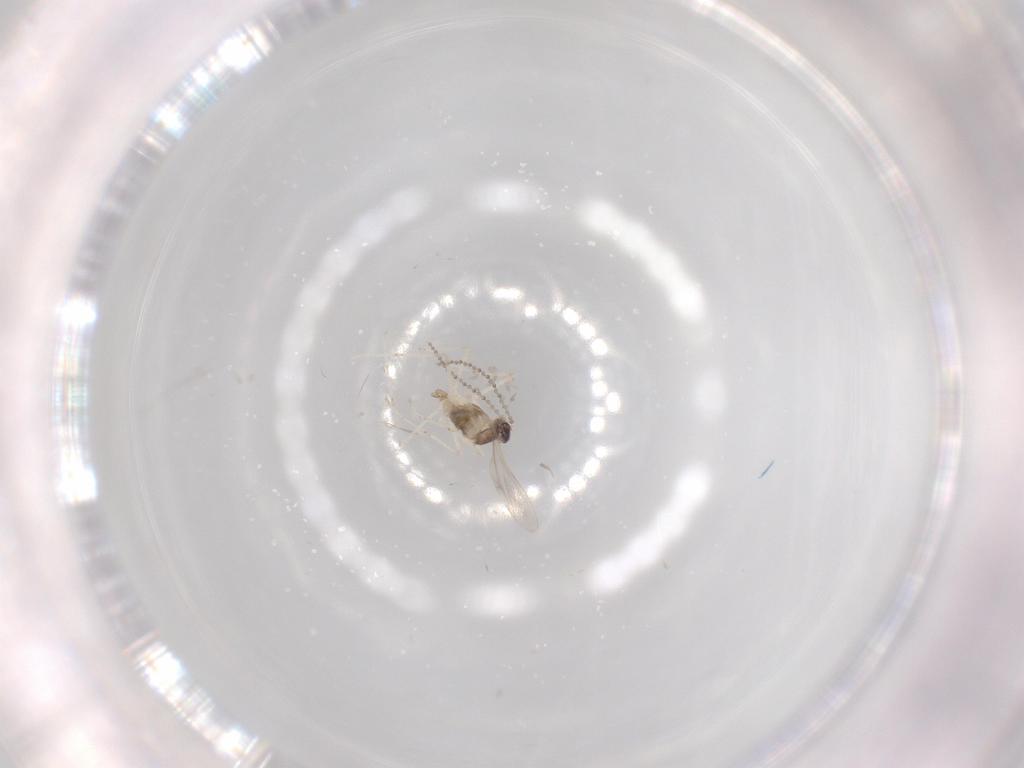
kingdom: Animalia
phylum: Arthropoda
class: Insecta
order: Diptera
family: Cecidomyiidae
